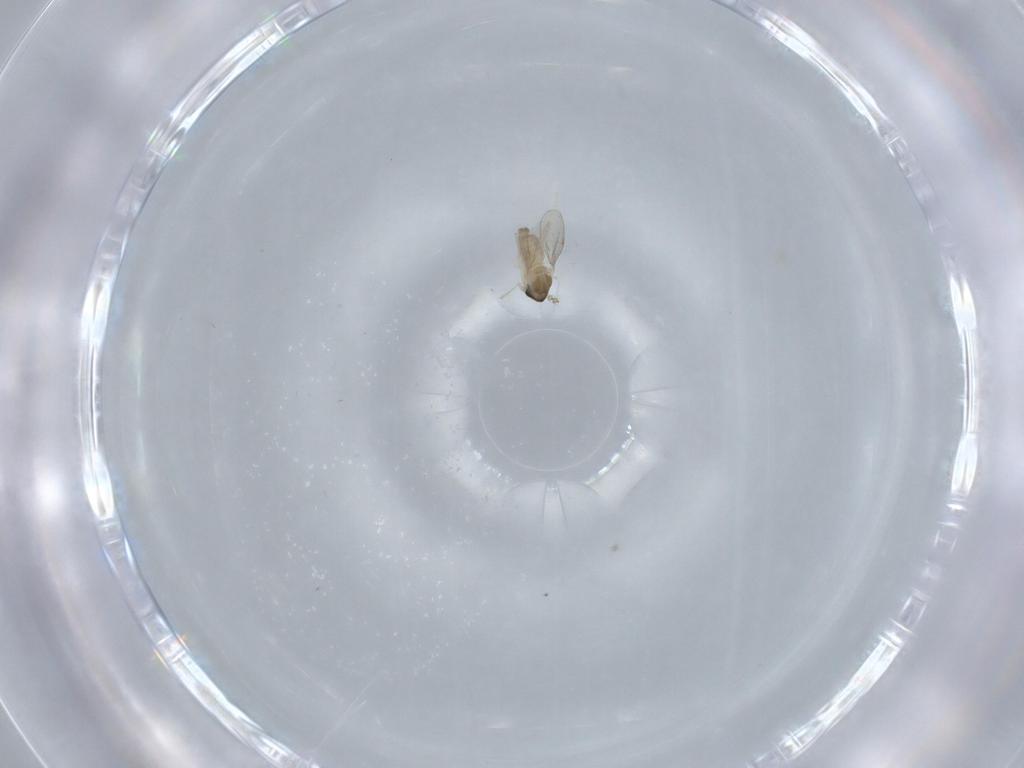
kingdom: Animalia
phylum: Arthropoda
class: Insecta
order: Diptera
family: Cecidomyiidae
